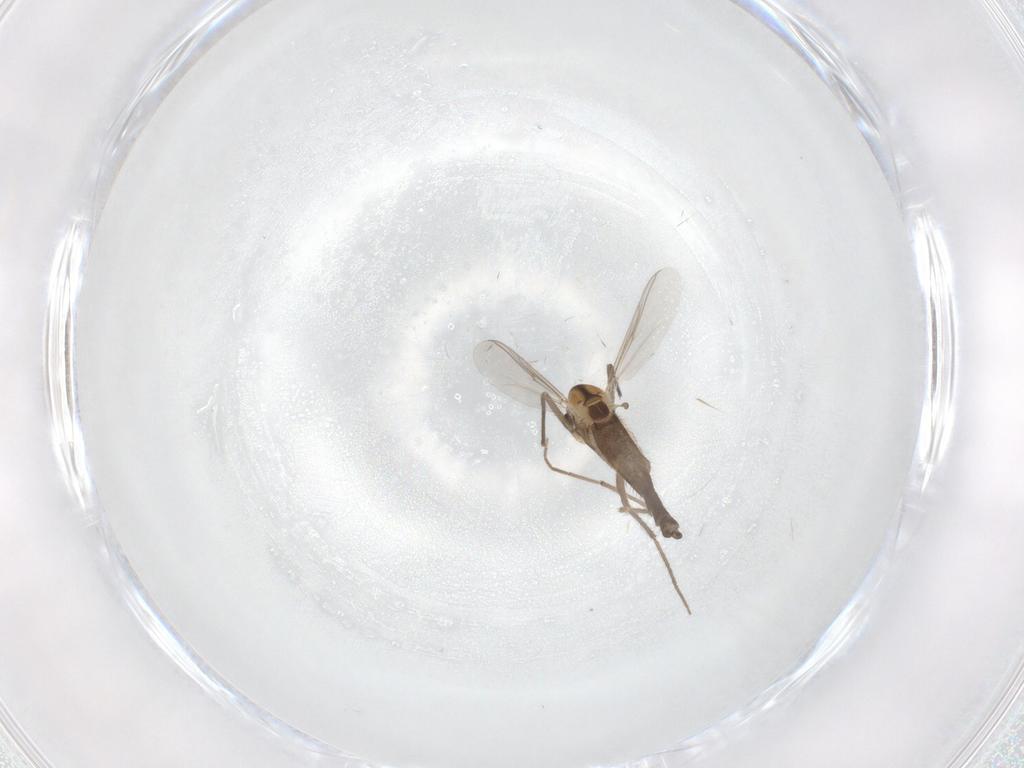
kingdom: Animalia
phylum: Arthropoda
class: Insecta
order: Diptera
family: Chironomidae
